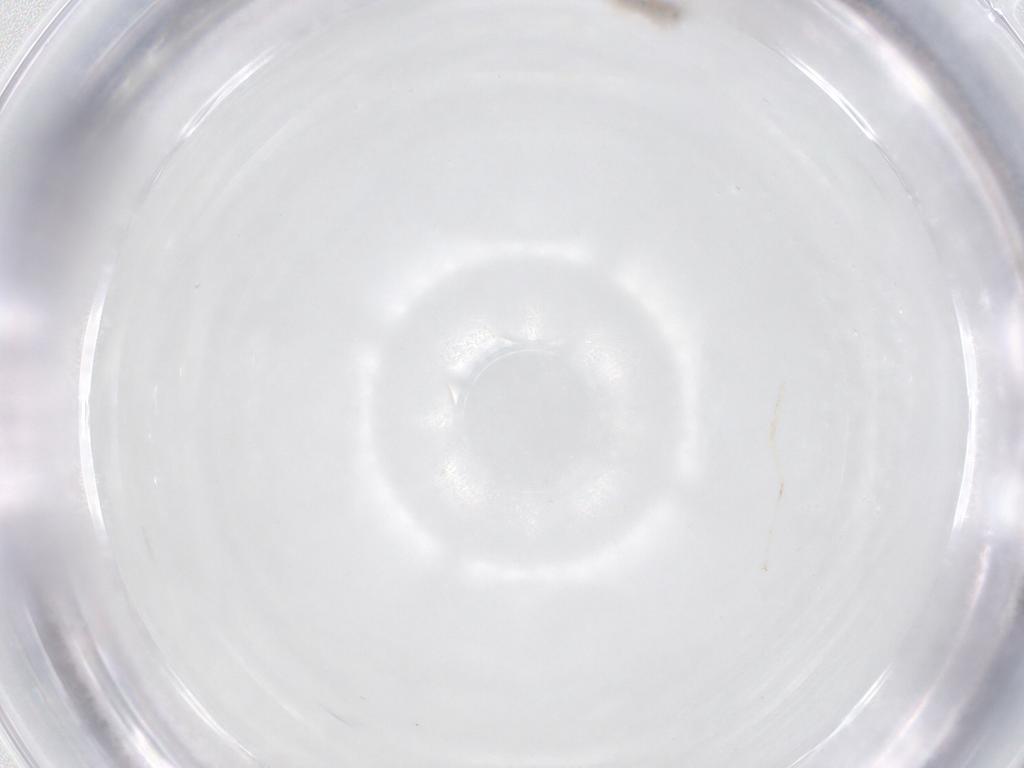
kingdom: Animalia
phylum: Arthropoda
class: Insecta
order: Diptera
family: Cecidomyiidae
